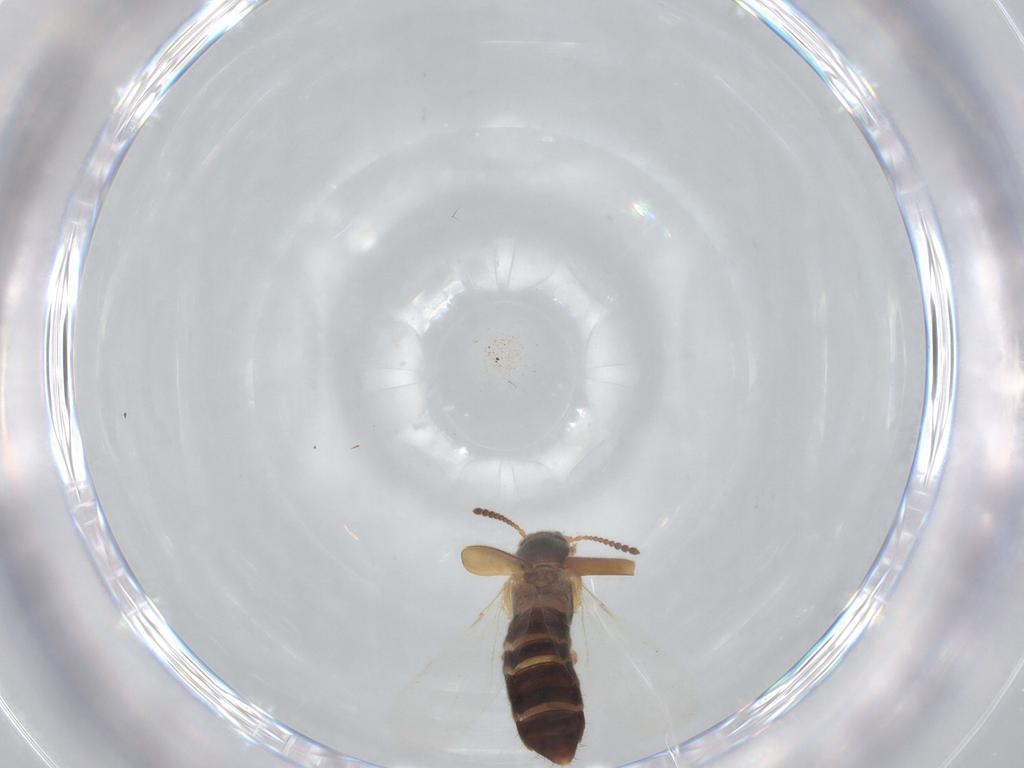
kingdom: Animalia
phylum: Arthropoda
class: Insecta
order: Coleoptera
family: Staphylinidae
